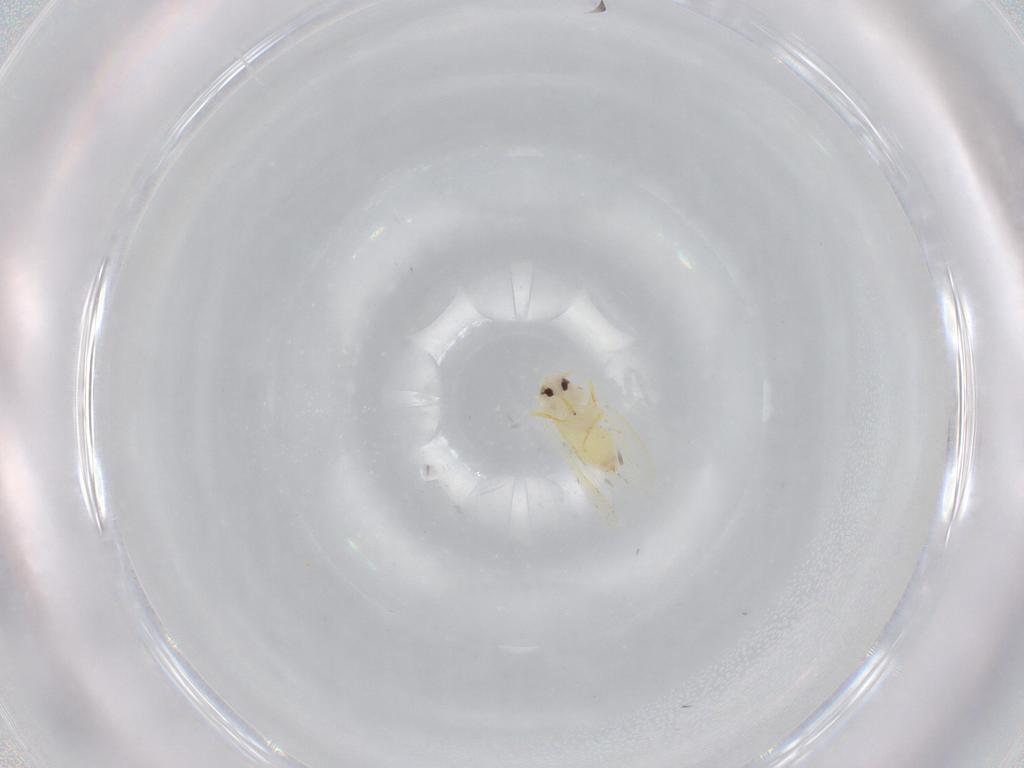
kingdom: Animalia
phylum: Arthropoda
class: Insecta
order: Hemiptera
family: Aleyrodidae
